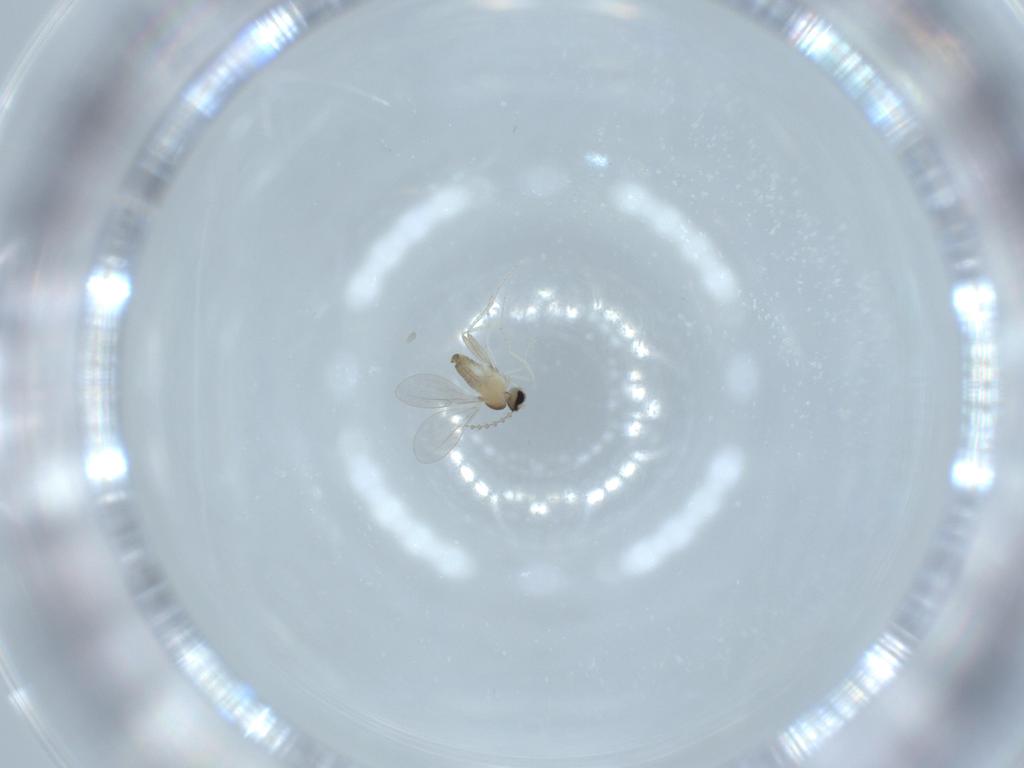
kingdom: Animalia
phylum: Arthropoda
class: Insecta
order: Diptera
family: Cecidomyiidae
